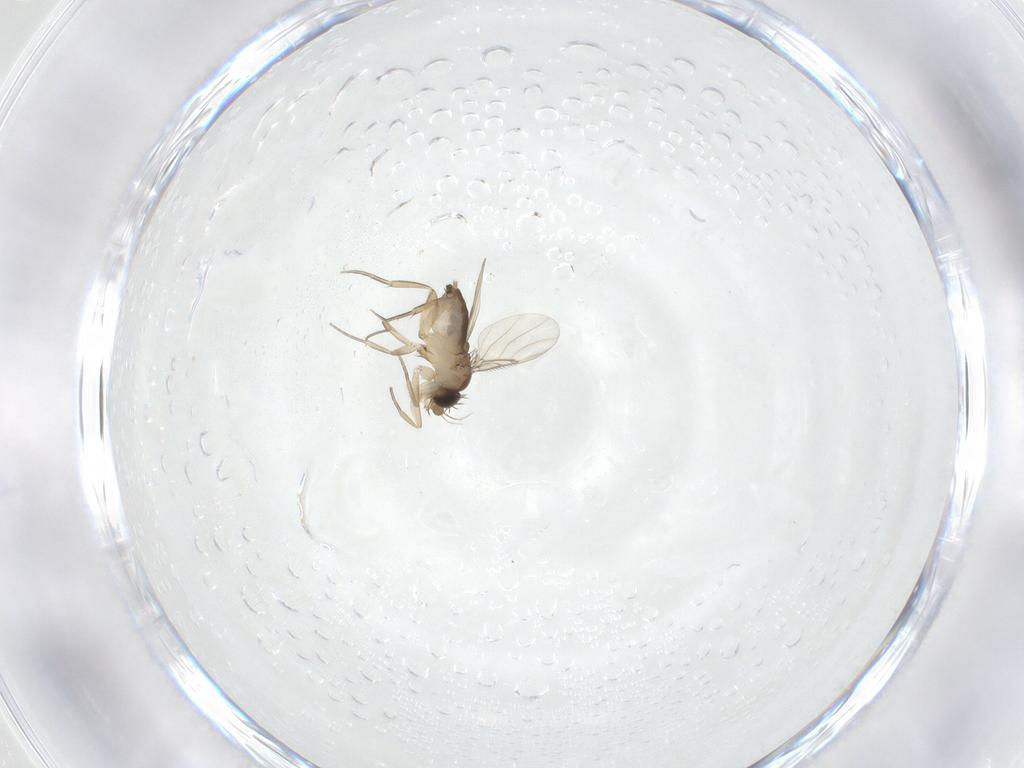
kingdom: Animalia
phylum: Arthropoda
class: Insecta
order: Diptera
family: Phoridae
